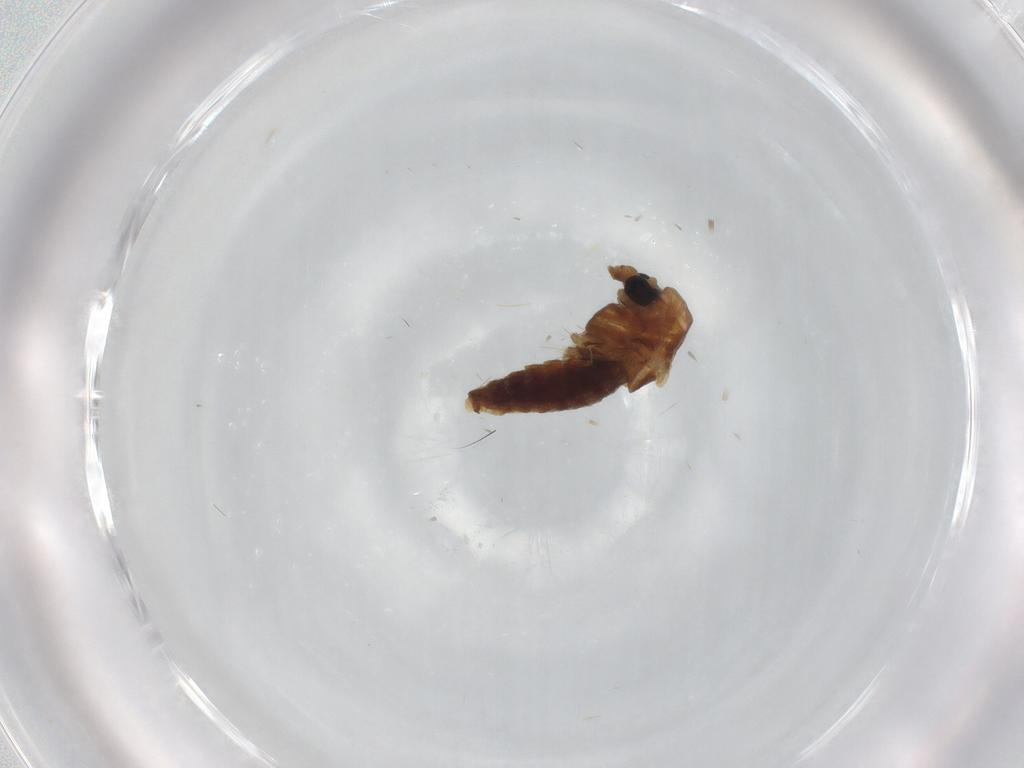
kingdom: Animalia
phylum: Arthropoda
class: Insecta
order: Diptera
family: Chironomidae
